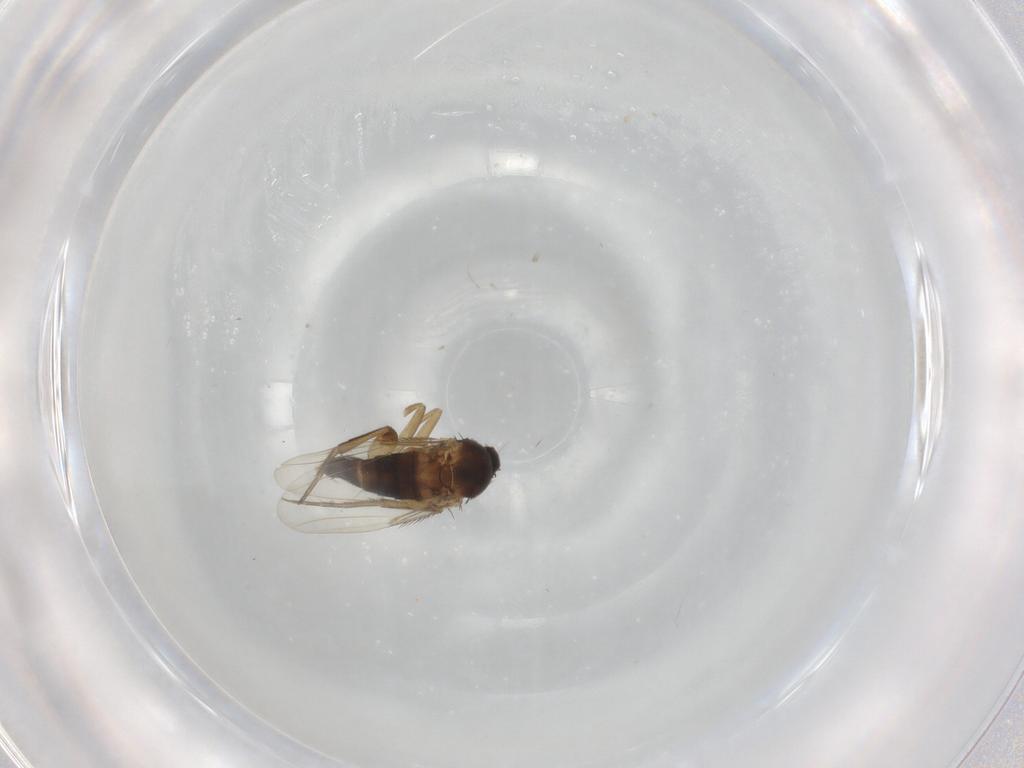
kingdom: Animalia
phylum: Arthropoda
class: Insecta
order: Diptera
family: Phoridae
